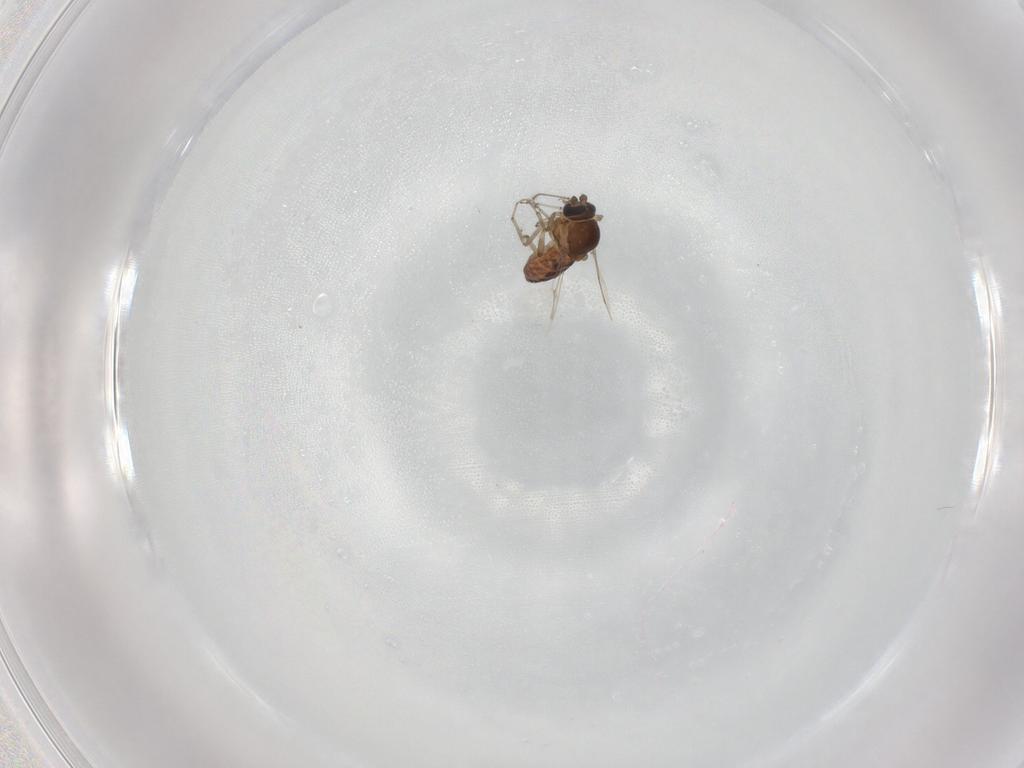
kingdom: Animalia
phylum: Arthropoda
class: Insecta
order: Diptera
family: Ceratopogonidae
